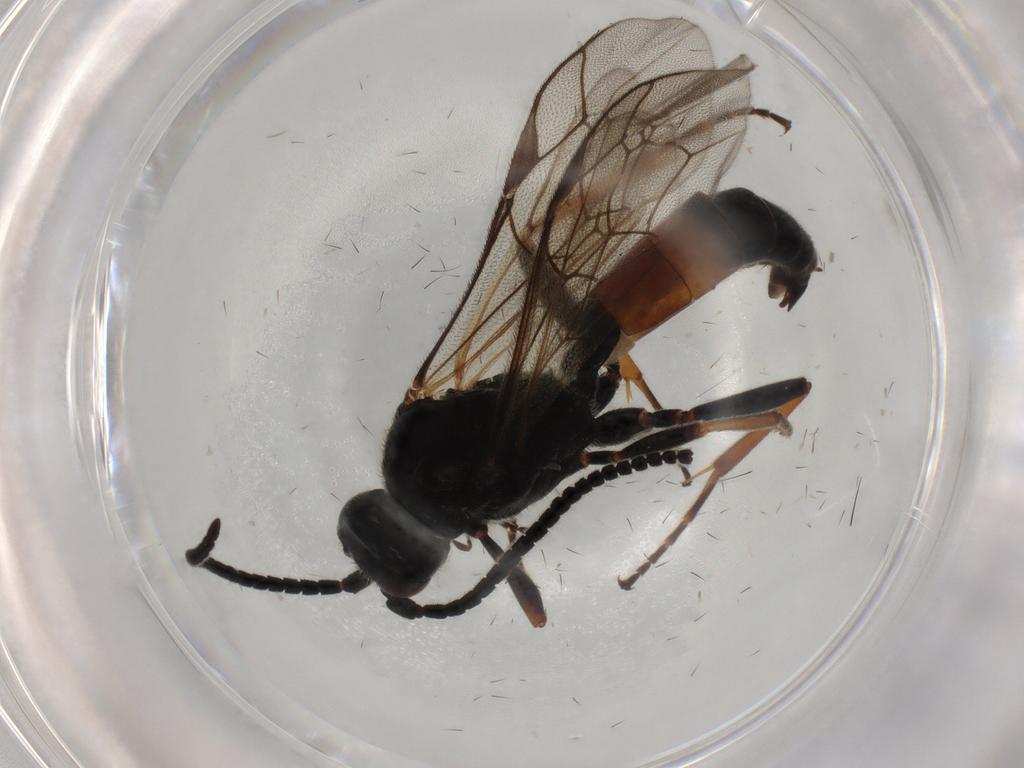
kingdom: Animalia
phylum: Arthropoda
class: Insecta
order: Hymenoptera
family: Ichneumonidae
